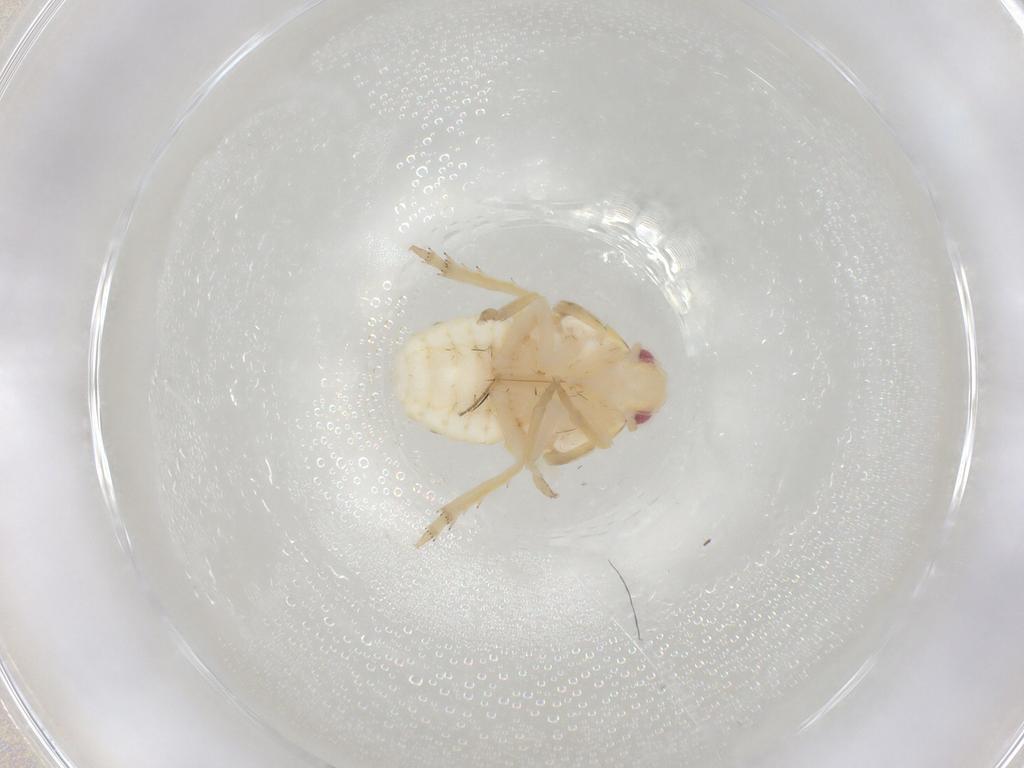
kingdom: Animalia
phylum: Arthropoda
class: Insecta
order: Hemiptera
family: Flatidae
